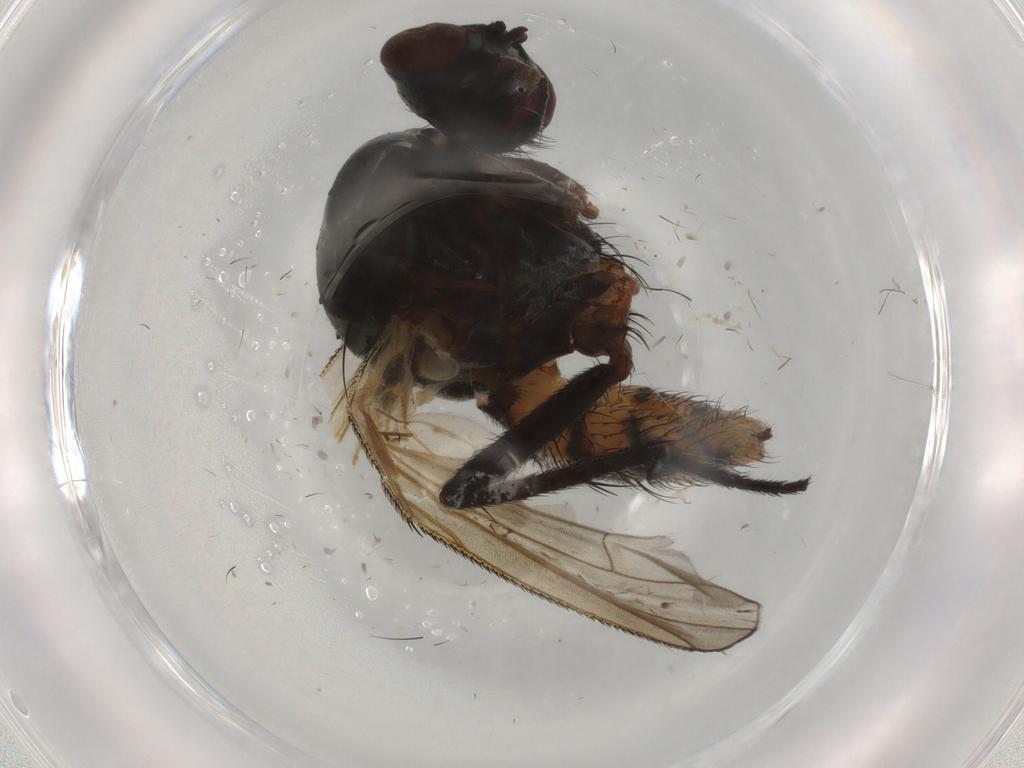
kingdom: Animalia
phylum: Arthropoda
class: Insecta
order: Diptera
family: Anthomyiidae
